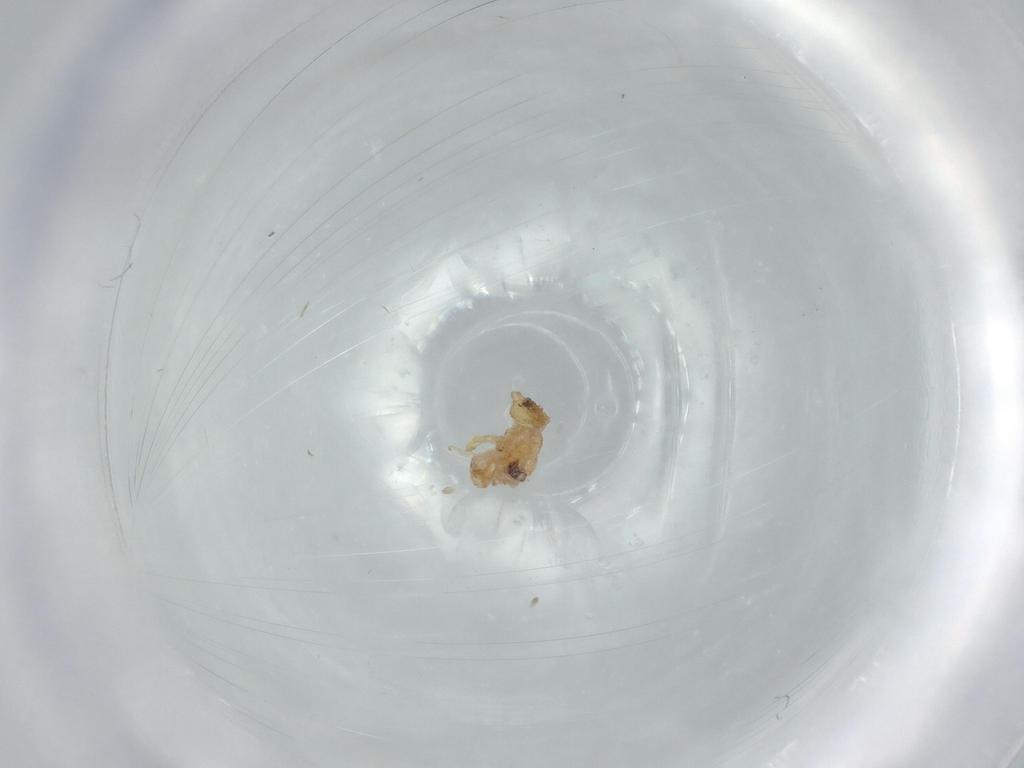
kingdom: Animalia
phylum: Arthropoda
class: Arachnida
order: Araneae
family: Oonopidae
